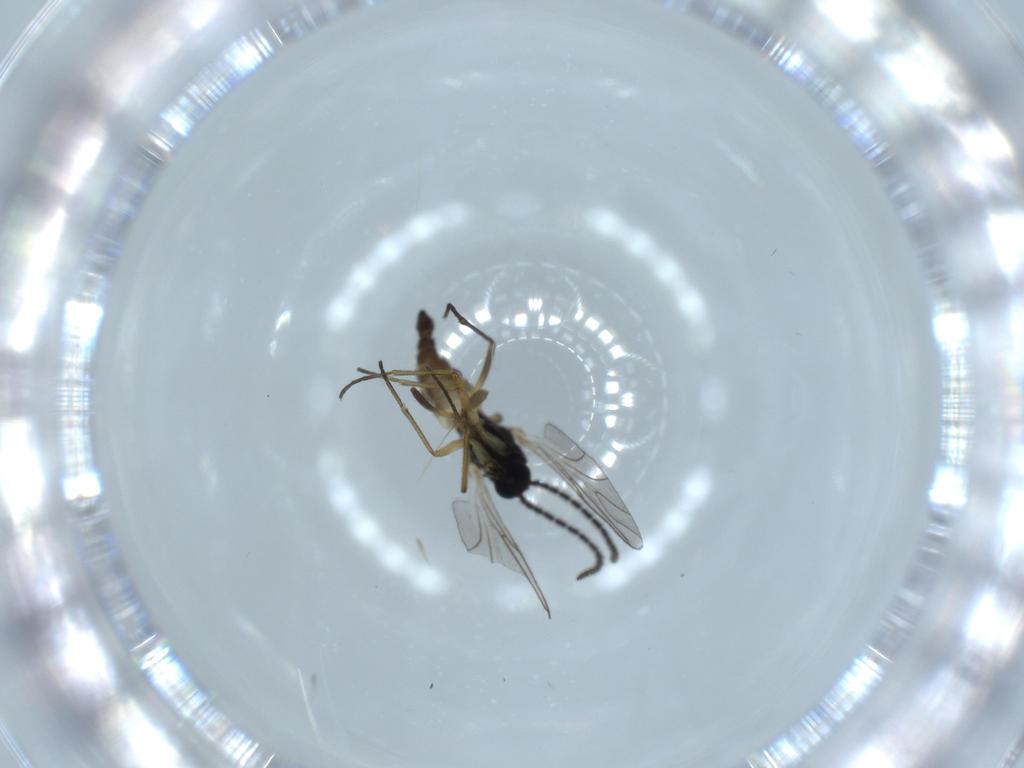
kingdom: Animalia
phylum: Arthropoda
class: Insecta
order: Diptera
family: Sciaridae
